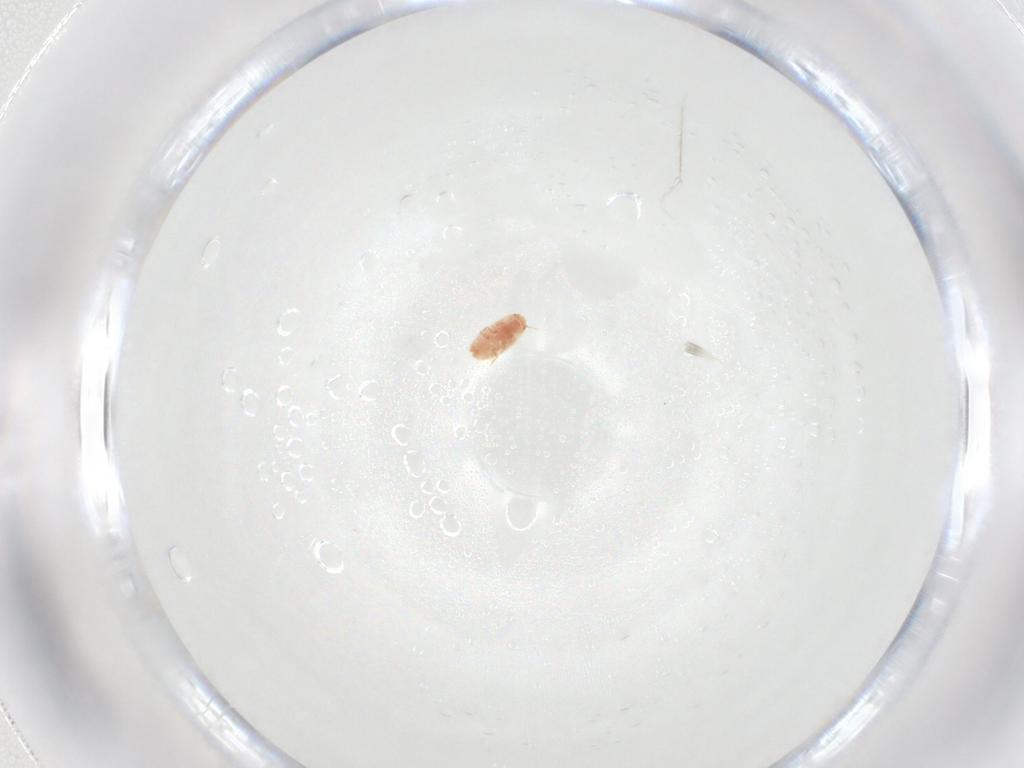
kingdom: Animalia
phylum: Arthropoda
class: Insecta
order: Hemiptera
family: Coccidae
